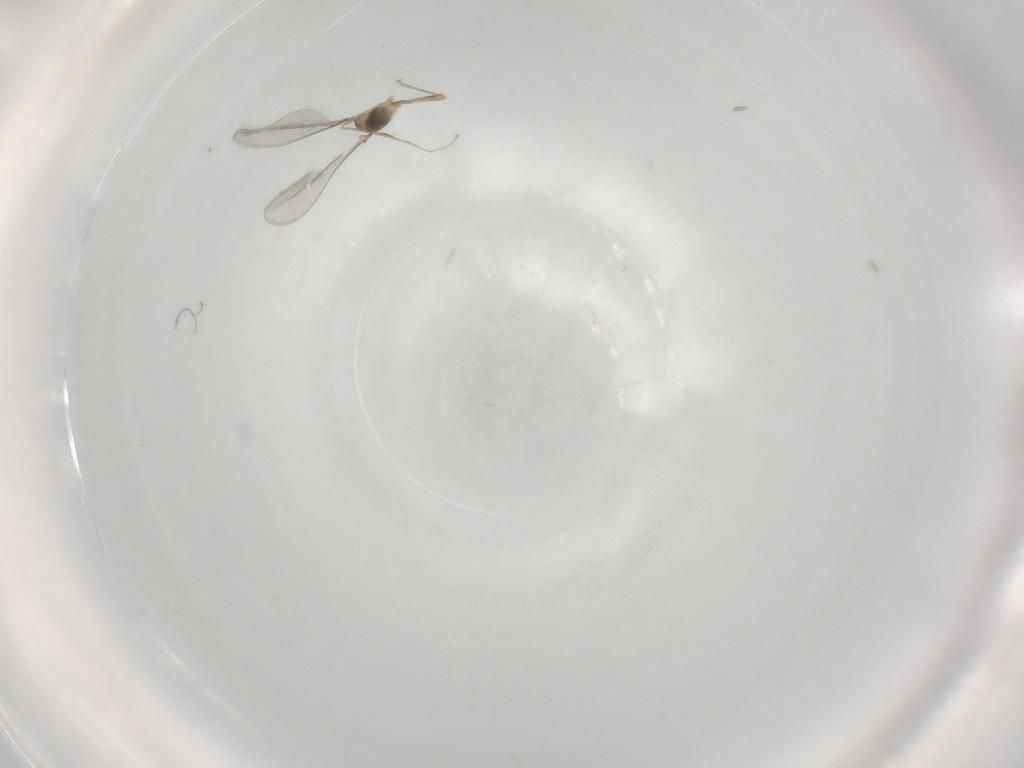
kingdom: Animalia
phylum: Arthropoda
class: Insecta
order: Diptera
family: Cecidomyiidae
